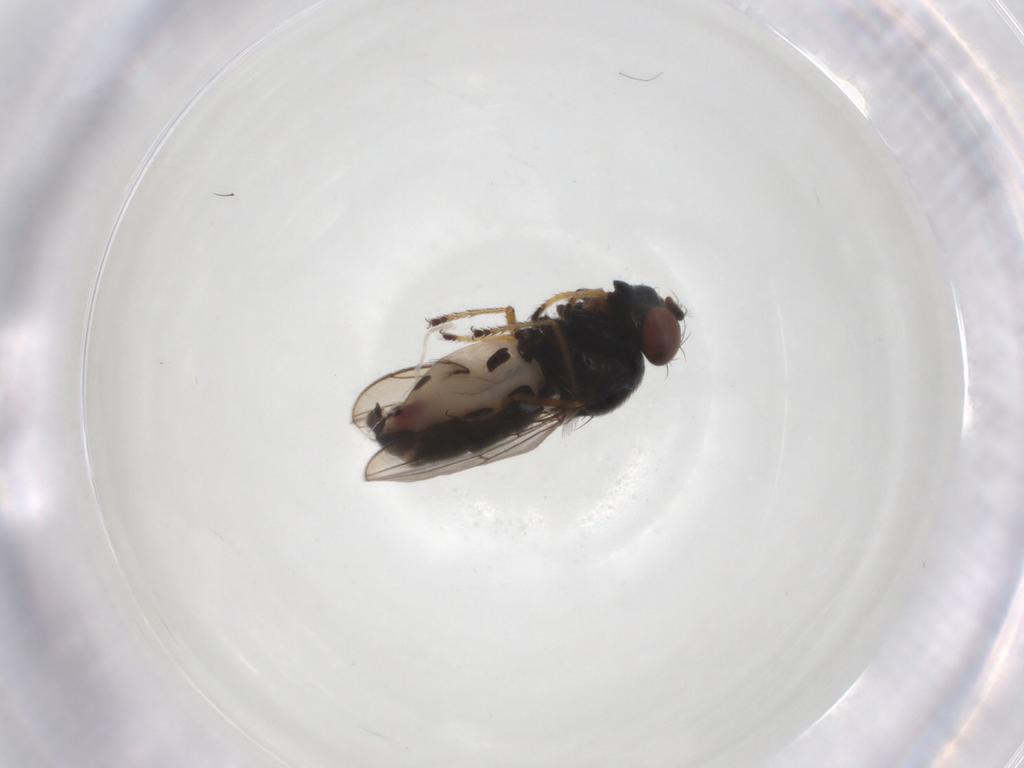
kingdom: Animalia
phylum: Arthropoda
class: Insecta
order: Diptera
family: Ephydridae
